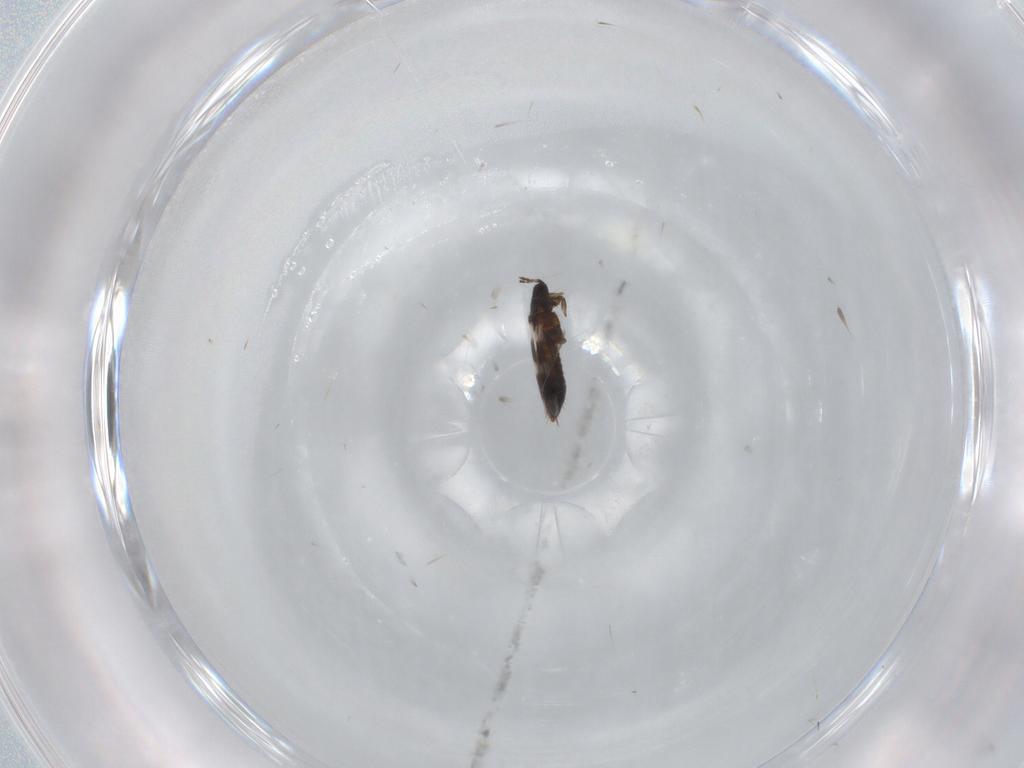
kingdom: Animalia
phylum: Arthropoda
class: Insecta
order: Thysanoptera
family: Aeolothripidae
